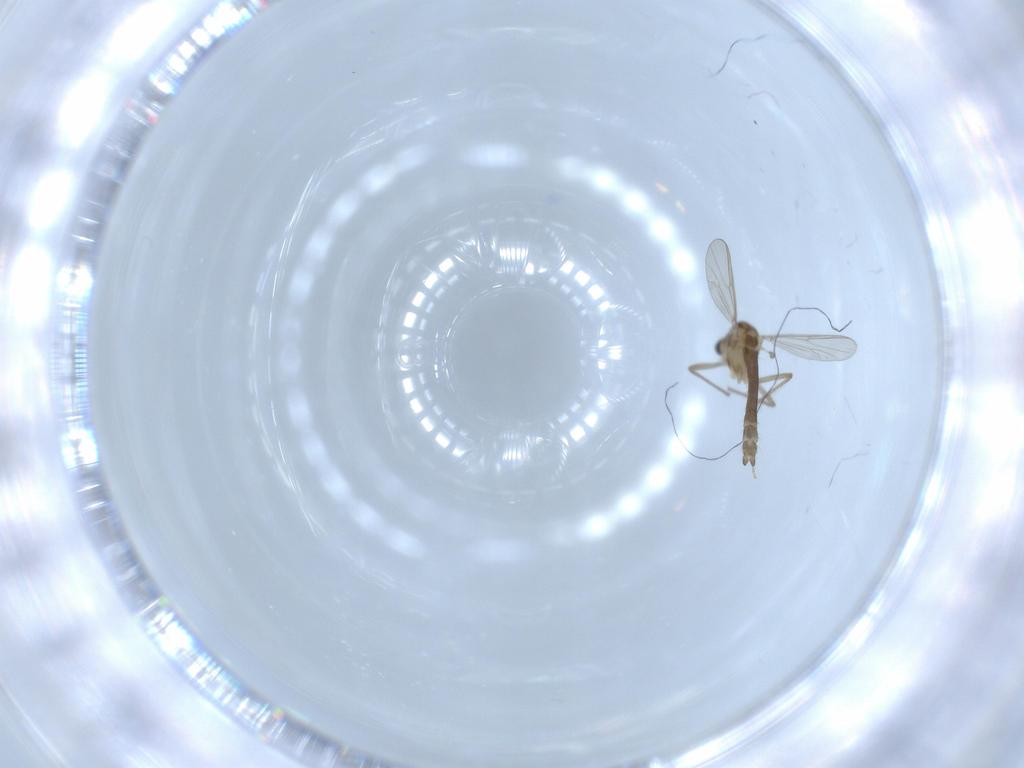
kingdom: Animalia
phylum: Arthropoda
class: Insecta
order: Diptera
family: Chironomidae
